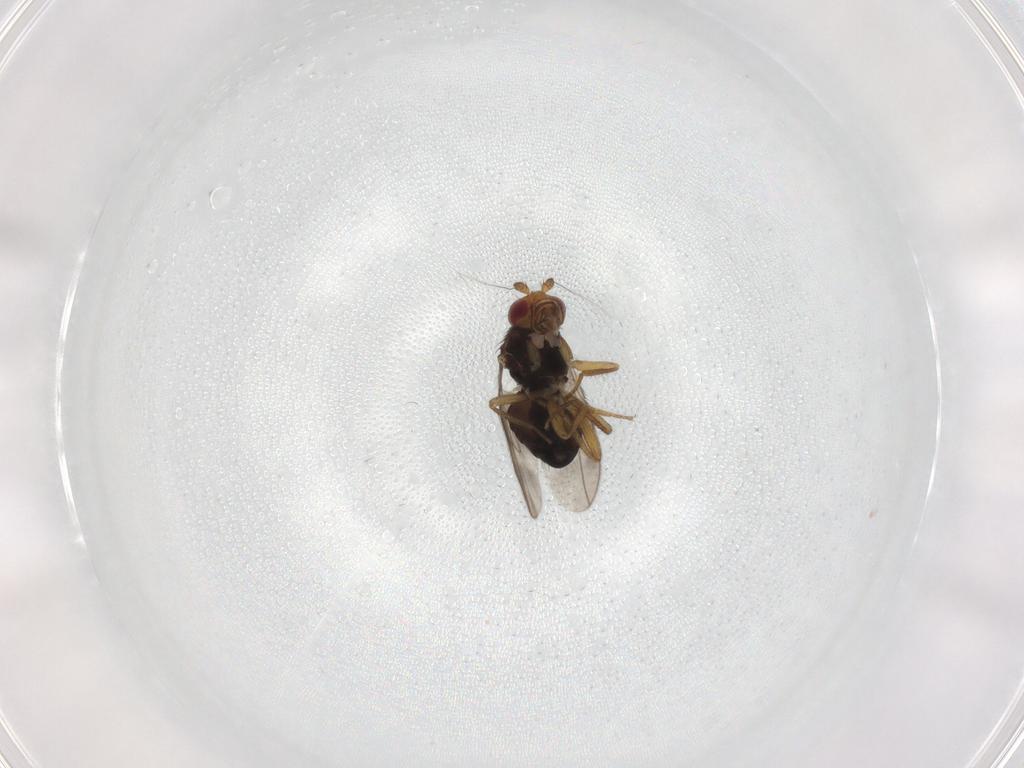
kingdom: Animalia
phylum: Arthropoda
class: Insecta
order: Diptera
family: Sphaeroceridae
